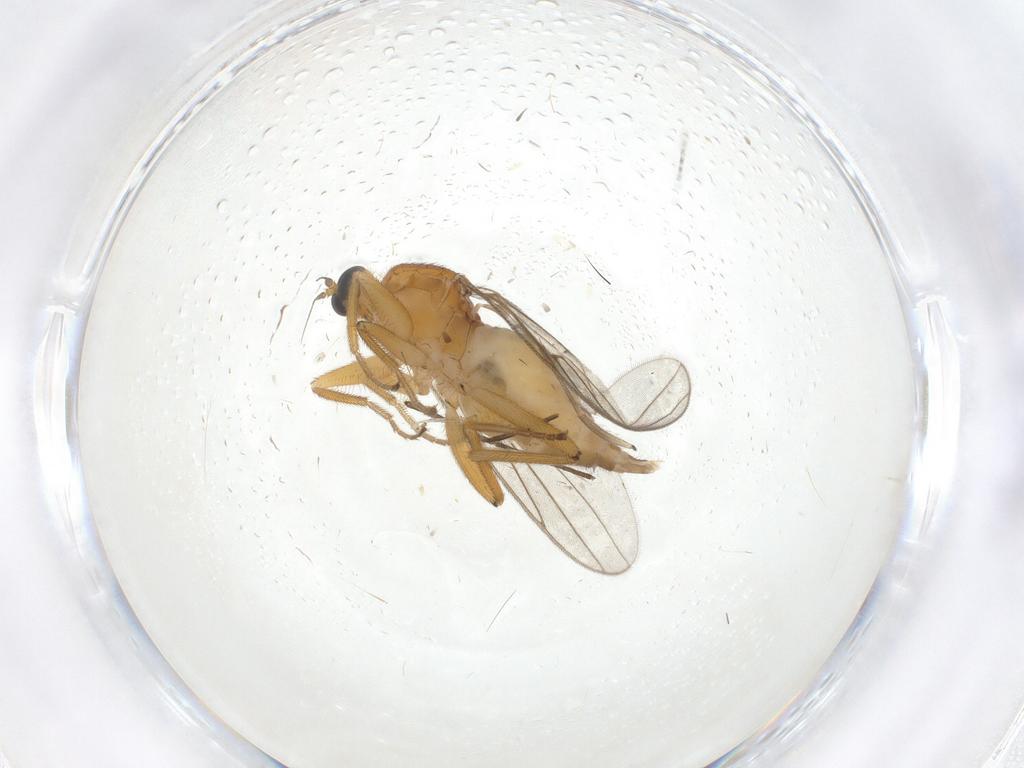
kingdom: Animalia
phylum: Arthropoda
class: Insecta
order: Diptera
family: Hybotidae
